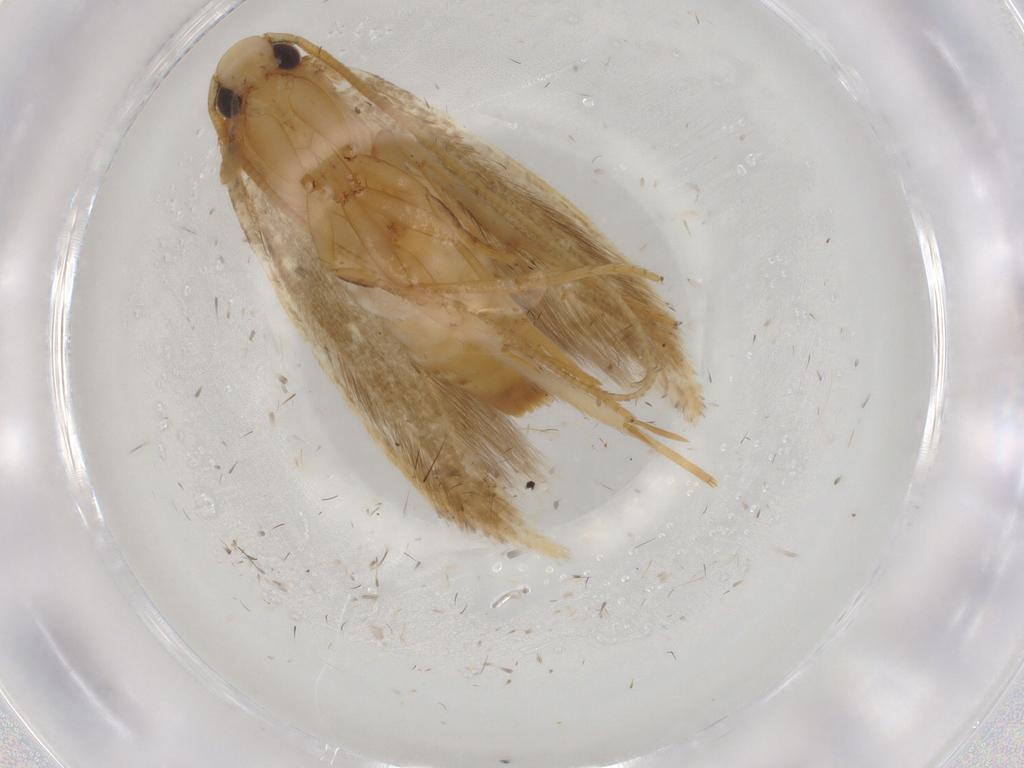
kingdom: Animalia
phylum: Arthropoda
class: Insecta
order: Lepidoptera
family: Tineidae
